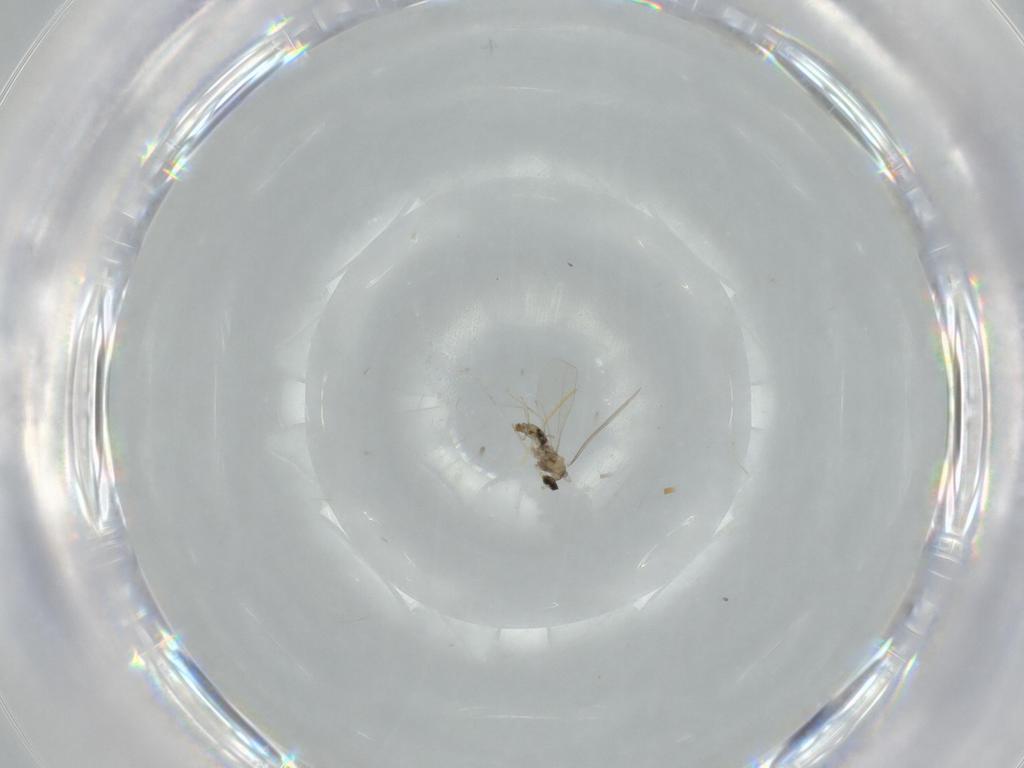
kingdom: Animalia
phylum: Arthropoda
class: Insecta
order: Diptera
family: Cecidomyiidae
